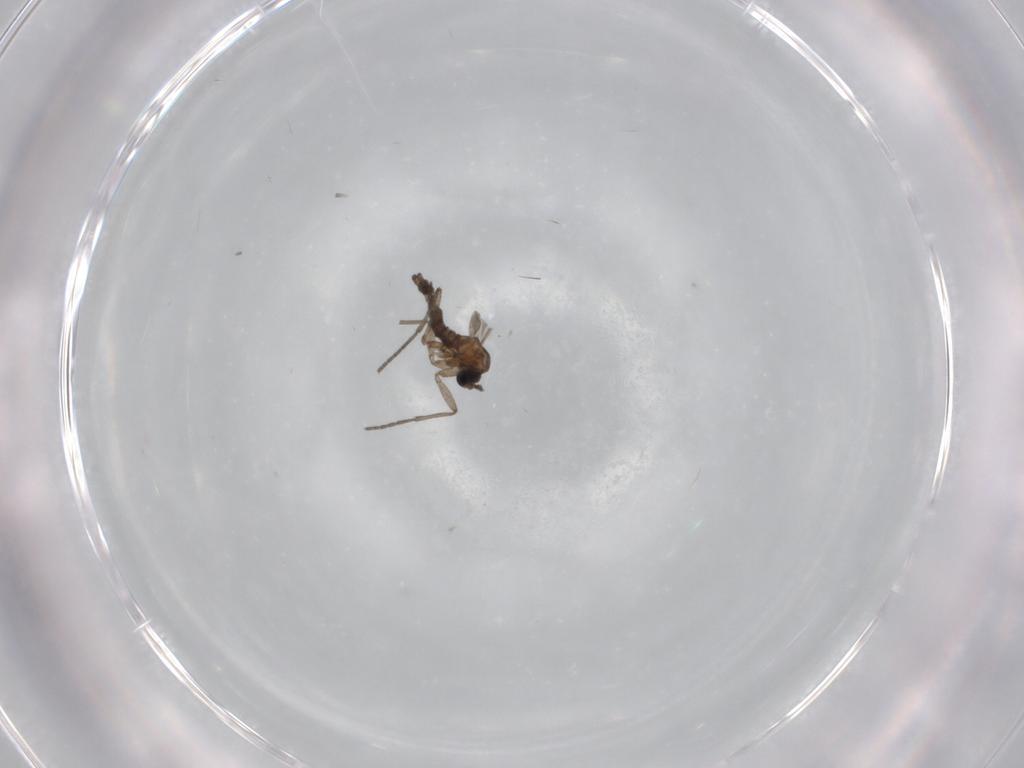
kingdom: Animalia
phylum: Arthropoda
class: Insecta
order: Diptera
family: Sciaridae
